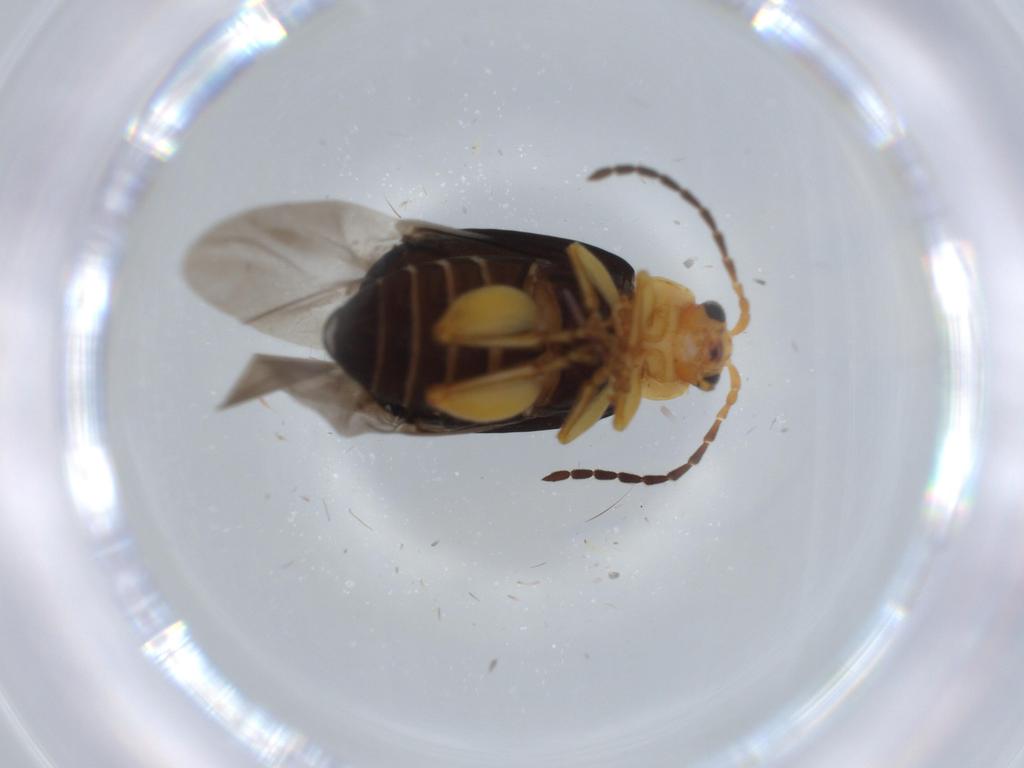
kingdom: Animalia
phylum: Arthropoda
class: Insecta
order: Coleoptera
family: Chrysomelidae
